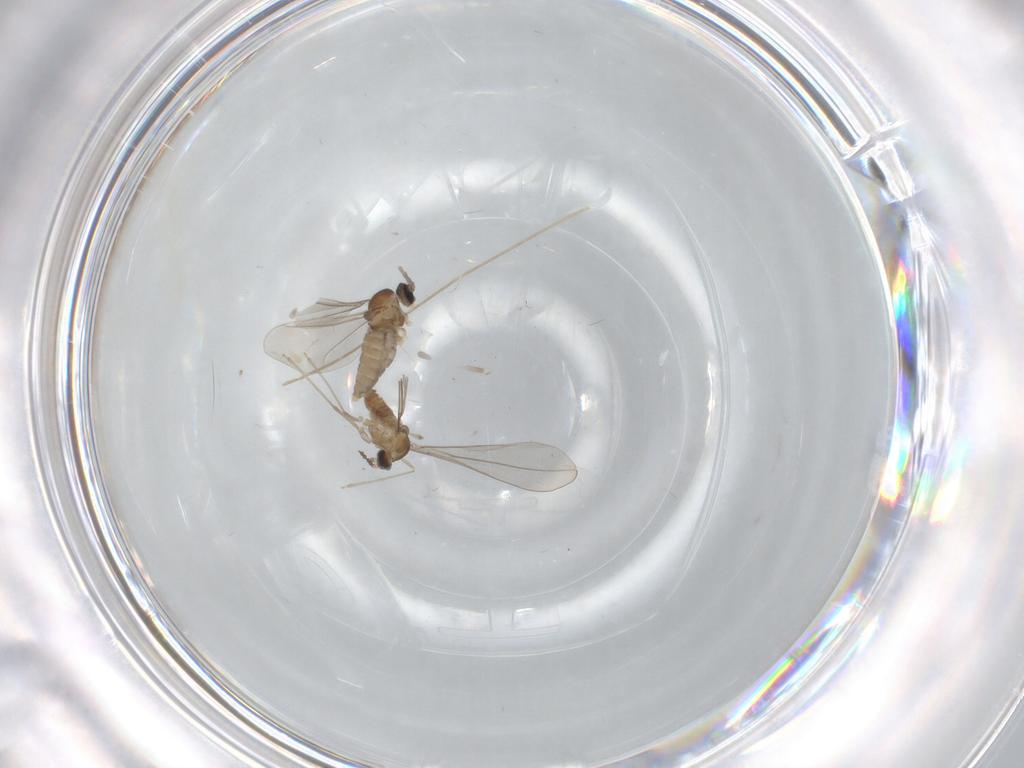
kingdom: Animalia
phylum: Arthropoda
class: Insecta
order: Diptera
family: Cecidomyiidae
